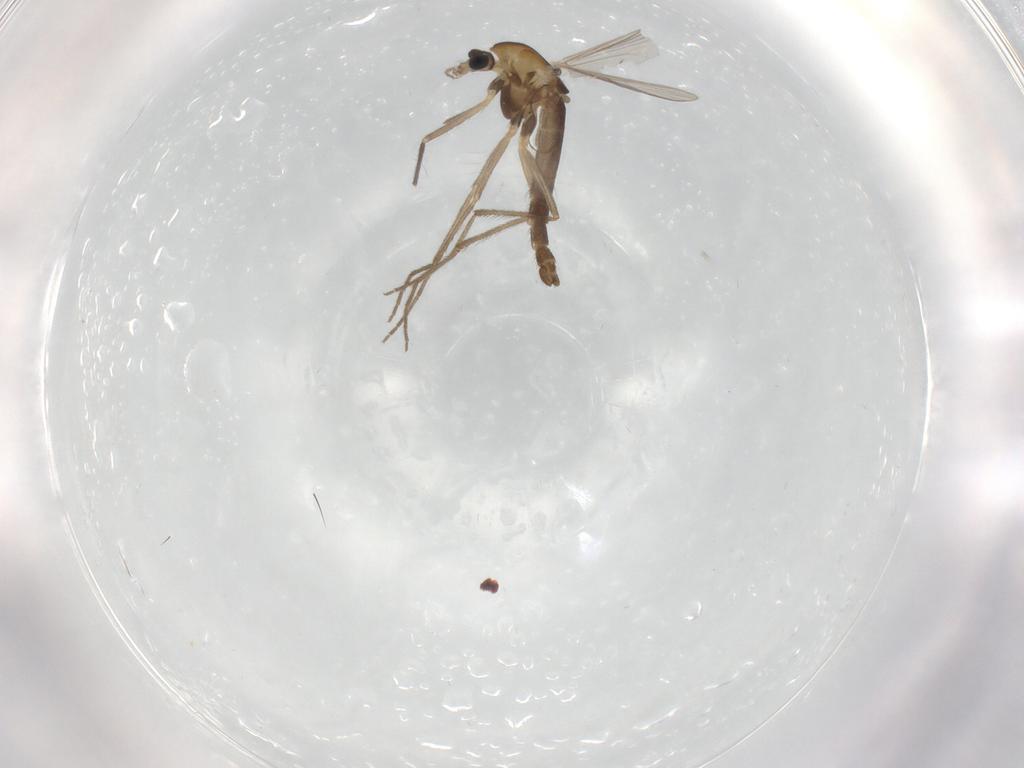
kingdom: Animalia
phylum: Arthropoda
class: Insecta
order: Diptera
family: Chironomidae
